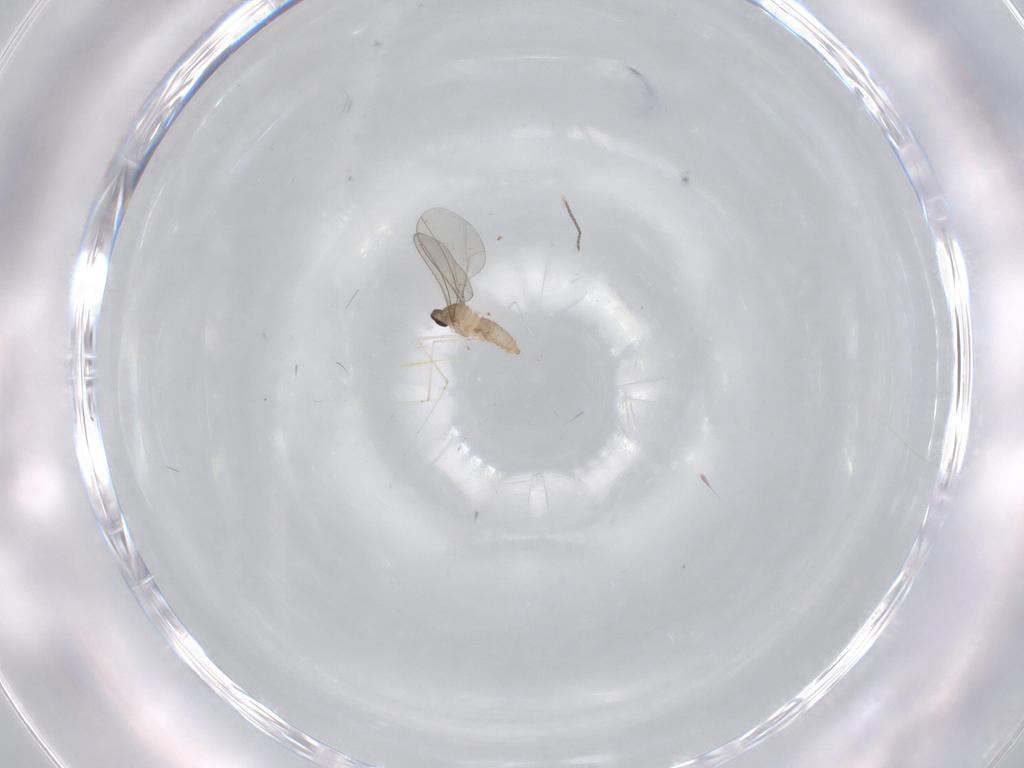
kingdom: Animalia
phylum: Arthropoda
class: Insecta
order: Diptera
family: Cecidomyiidae
